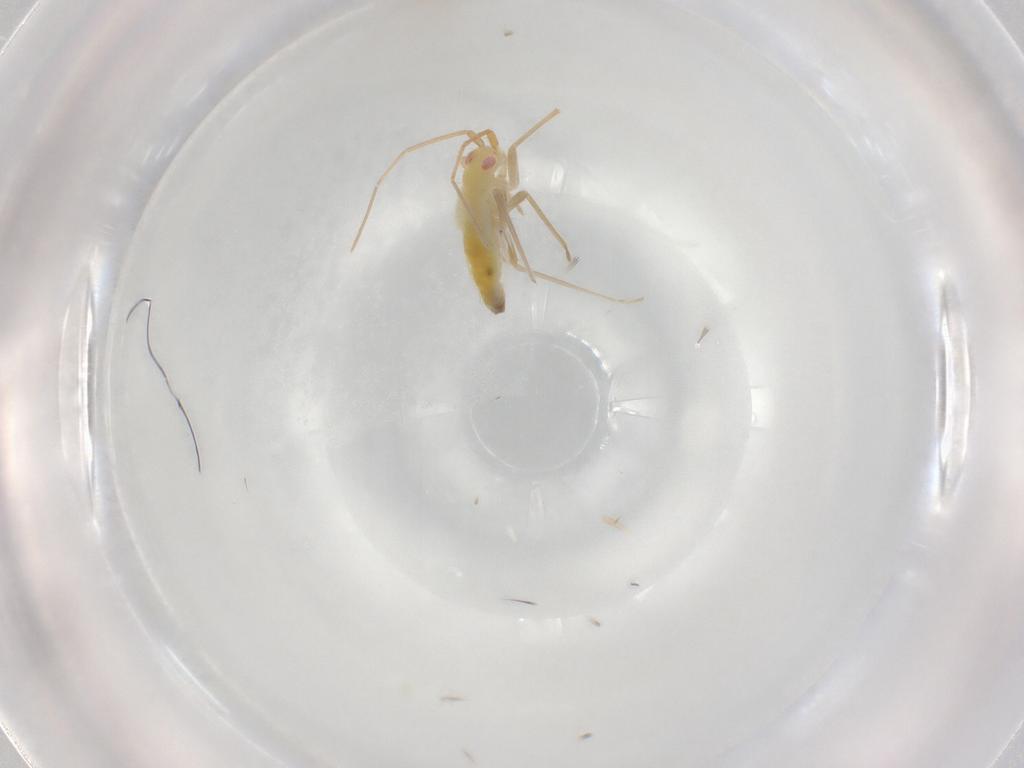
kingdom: Animalia
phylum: Arthropoda
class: Insecta
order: Hemiptera
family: Miridae
